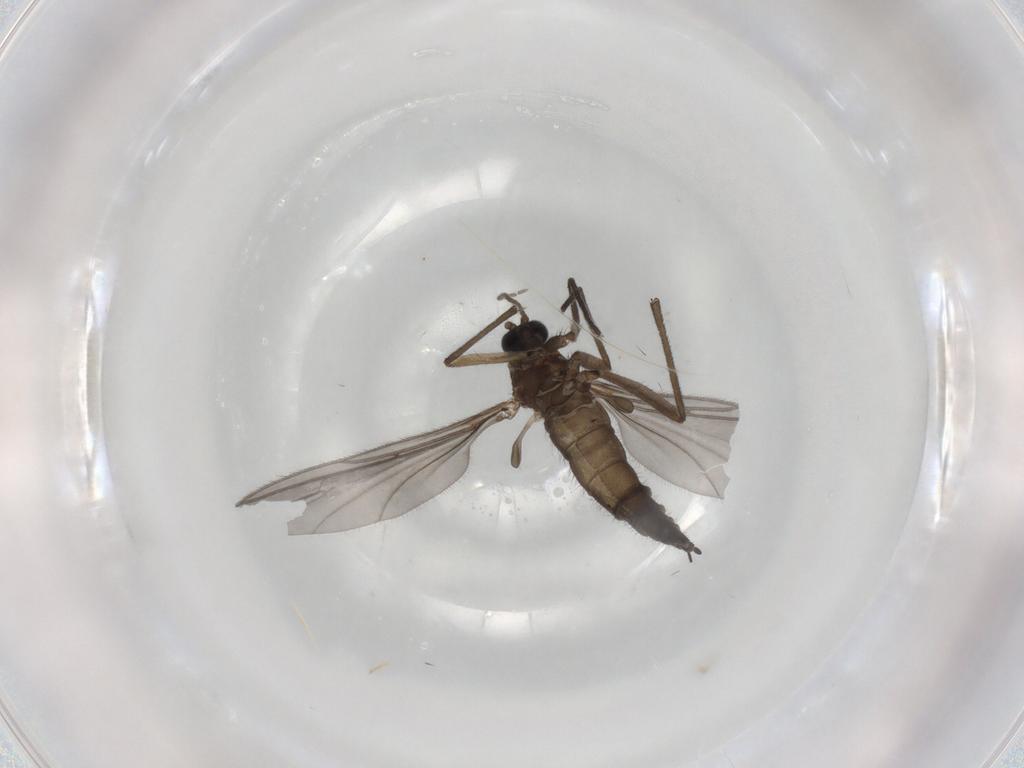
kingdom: Animalia
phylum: Arthropoda
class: Insecta
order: Diptera
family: Sciaridae
